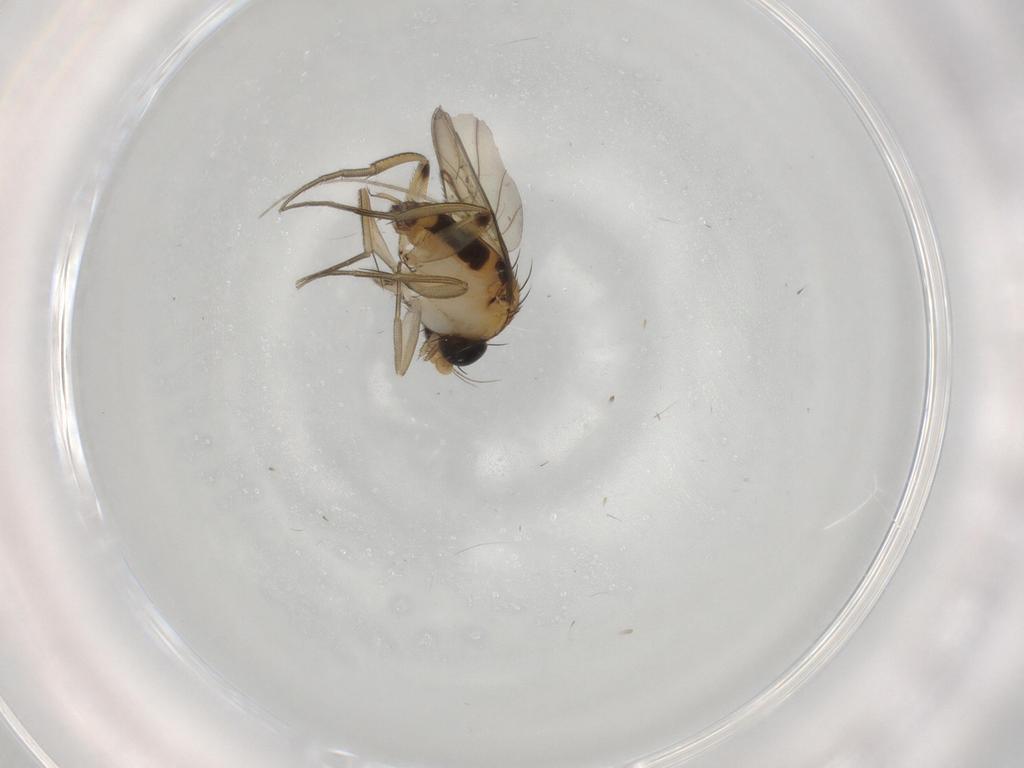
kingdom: Animalia
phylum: Arthropoda
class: Insecta
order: Diptera
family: Phoridae
